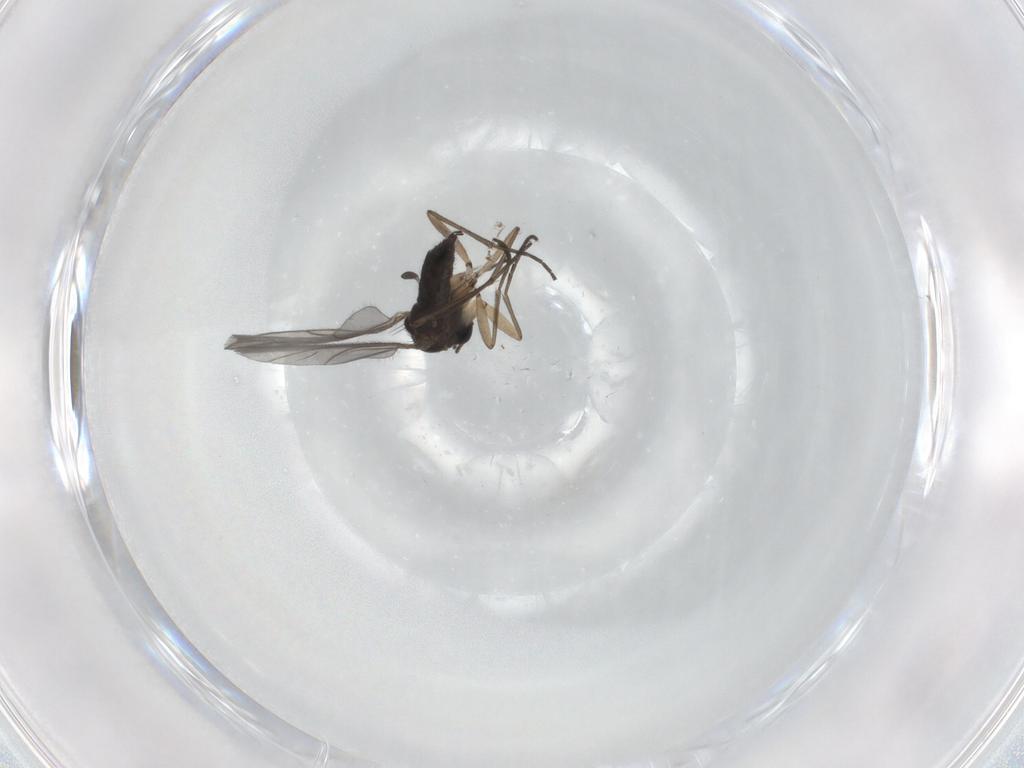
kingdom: Animalia
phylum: Arthropoda
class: Insecta
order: Diptera
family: Sciaridae
